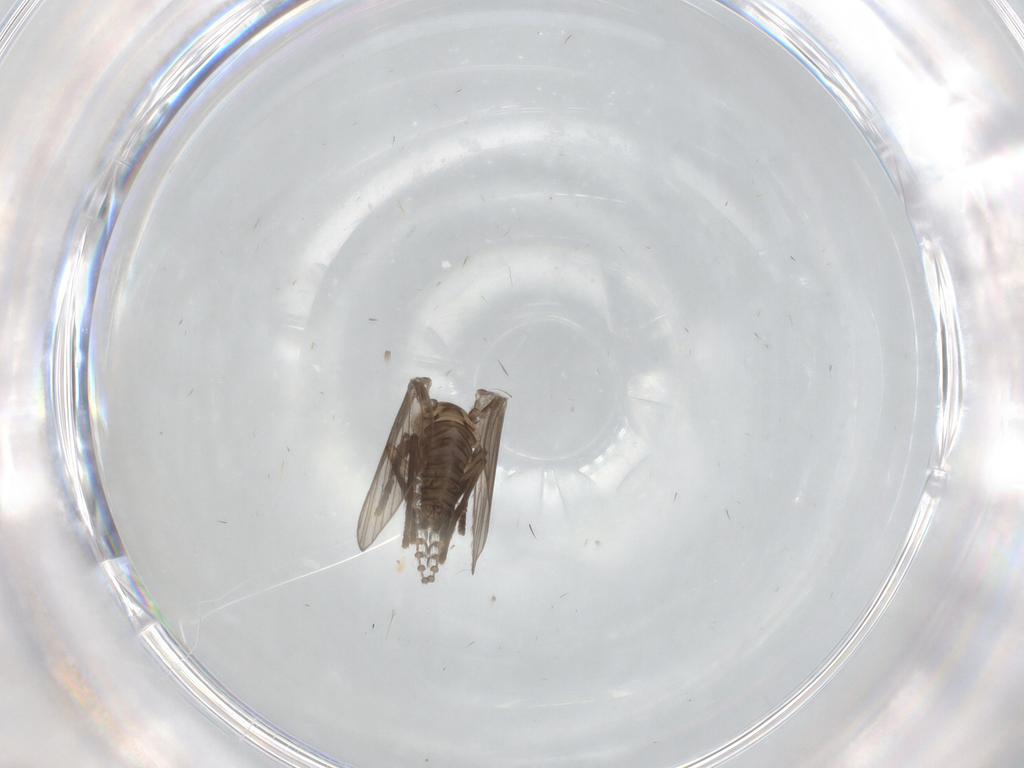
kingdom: Animalia
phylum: Arthropoda
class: Insecta
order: Diptera
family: Psychodidae
